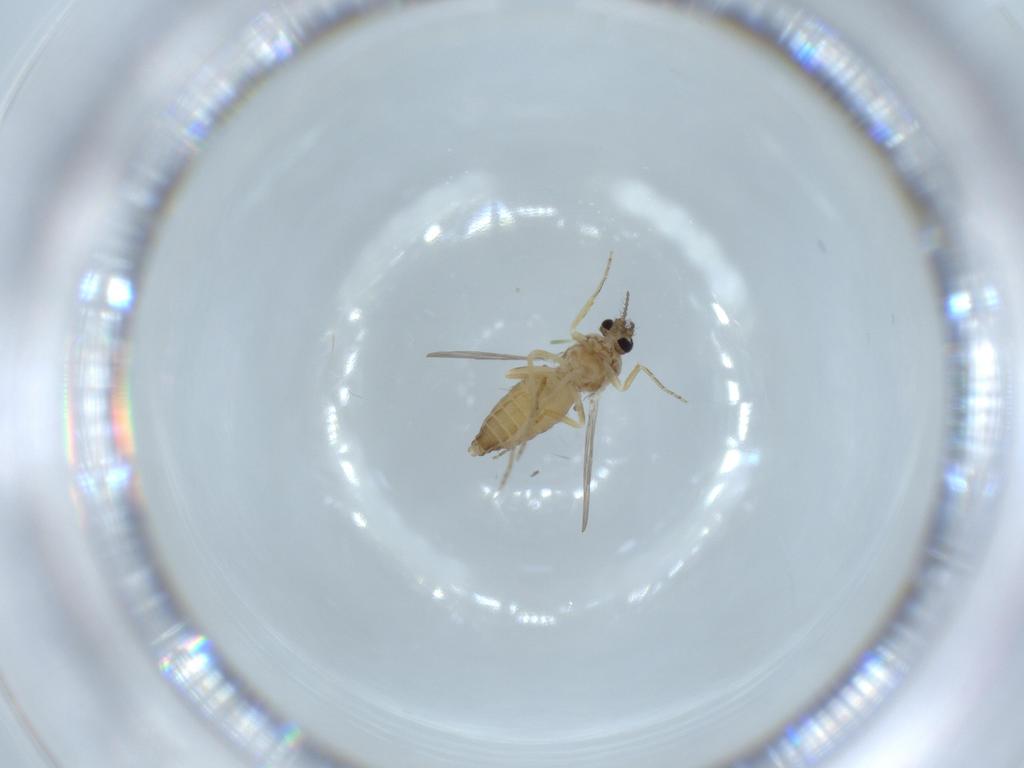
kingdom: Animalia
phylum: Arthropoda
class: Insecta
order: Diptera
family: Ceratopogonidae
